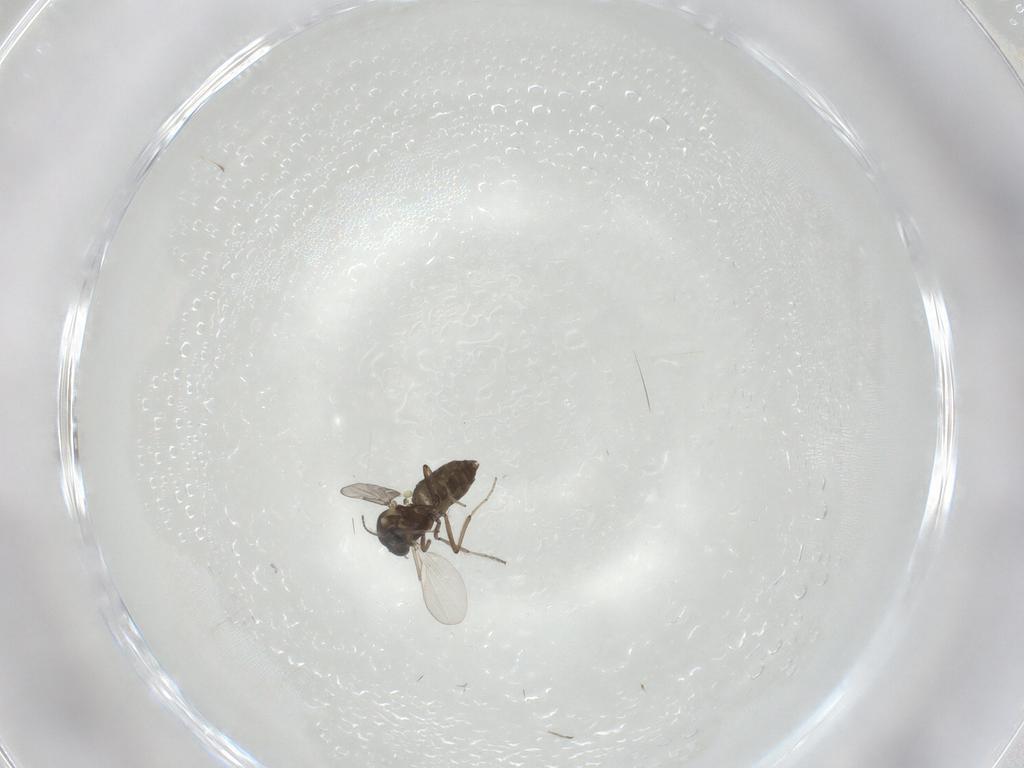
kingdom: Animalia
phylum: Arthropoda
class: Insecta
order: Diptera
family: Ceratopogonidae
